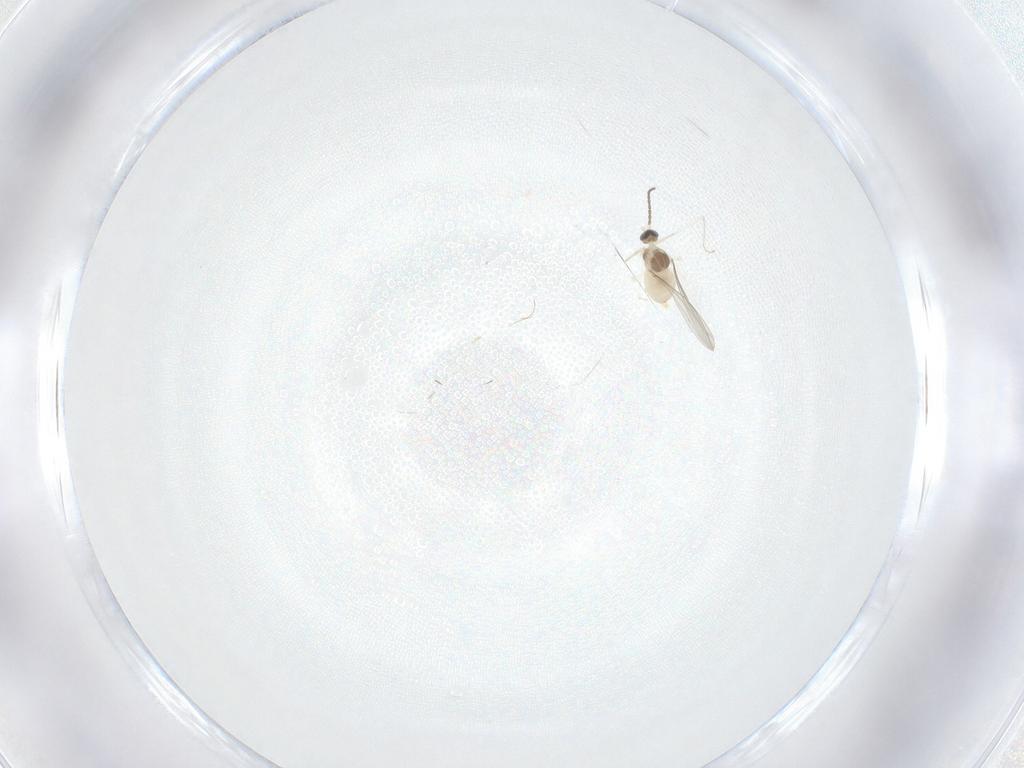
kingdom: Animalia
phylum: Arthropoda
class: Insecta
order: Diptera
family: Cecidomyiidae
